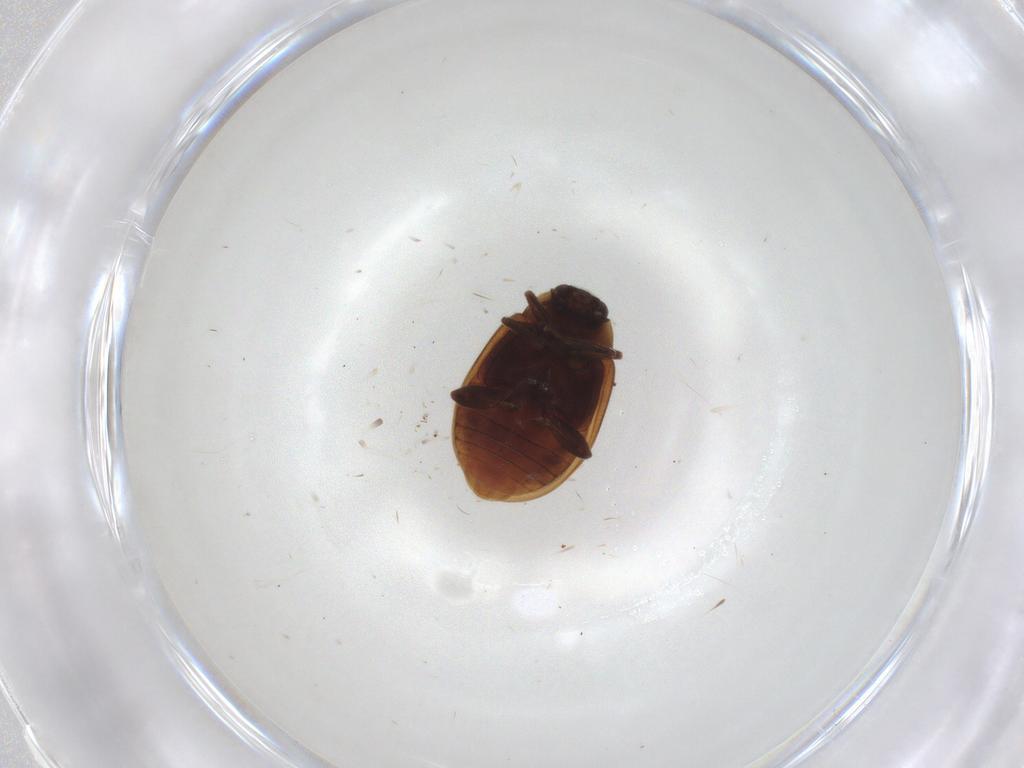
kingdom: Animalia
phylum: Arthropoda
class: Insecta
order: Coleoptera
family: Melyridae
